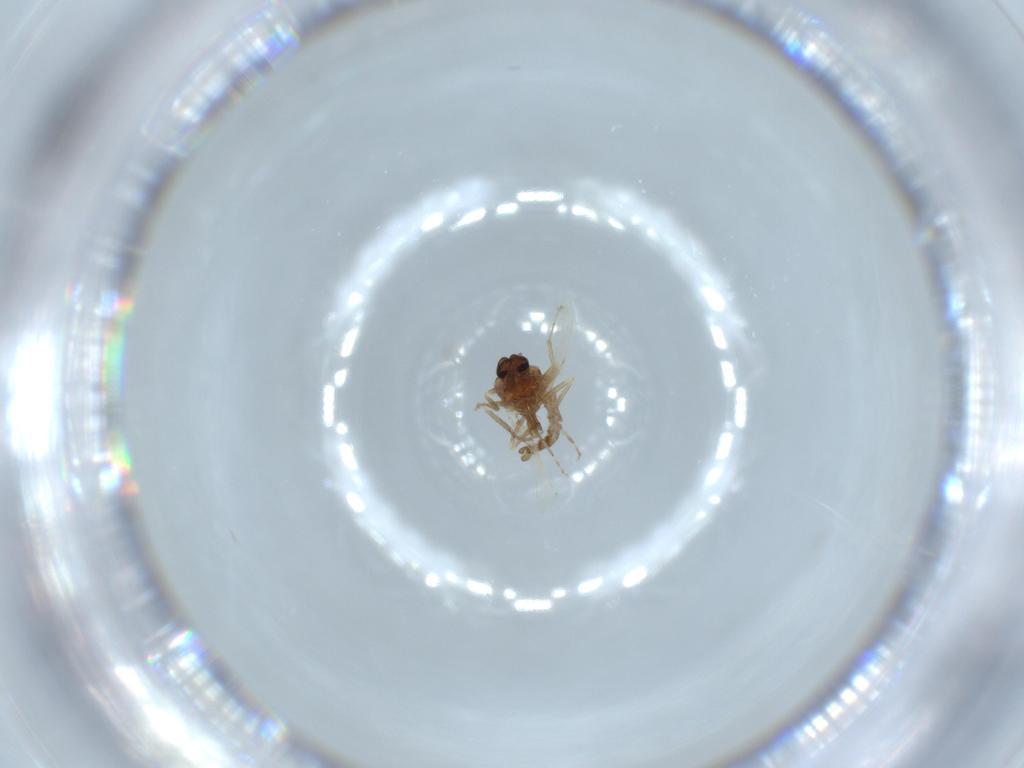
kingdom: Animalia
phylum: Arthropoda
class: Insecta
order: Diptera
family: Ceratopogonidae
